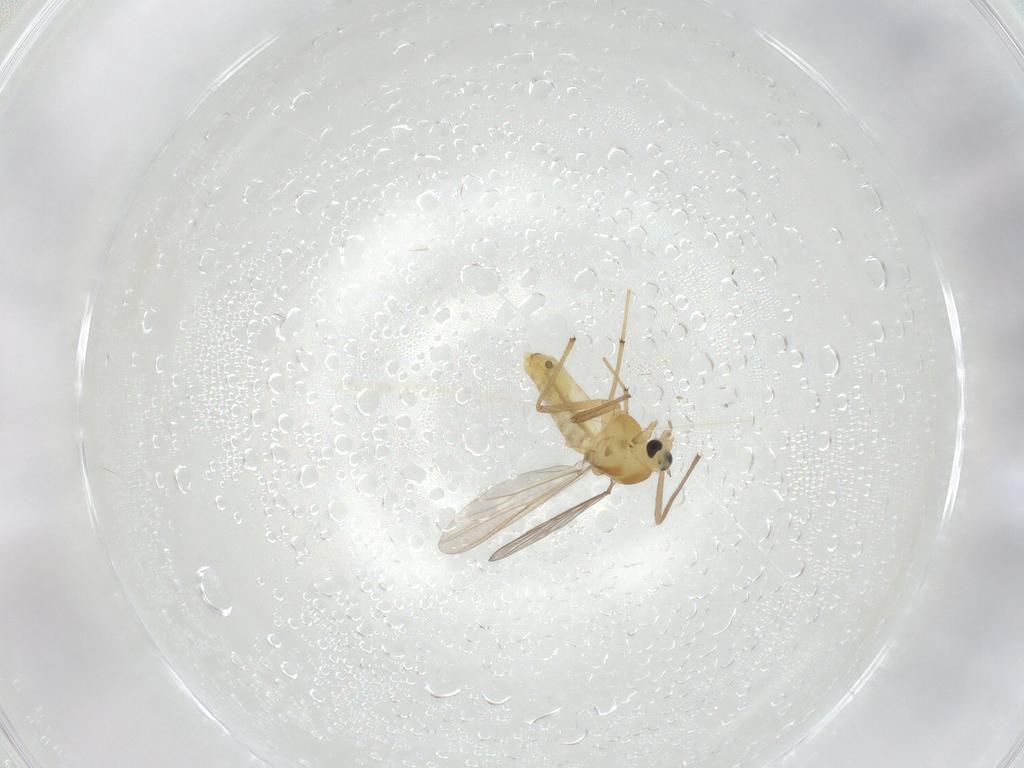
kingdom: Animalia
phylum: Arthropoda
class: Insecta
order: Diptera
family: Chironomidae
